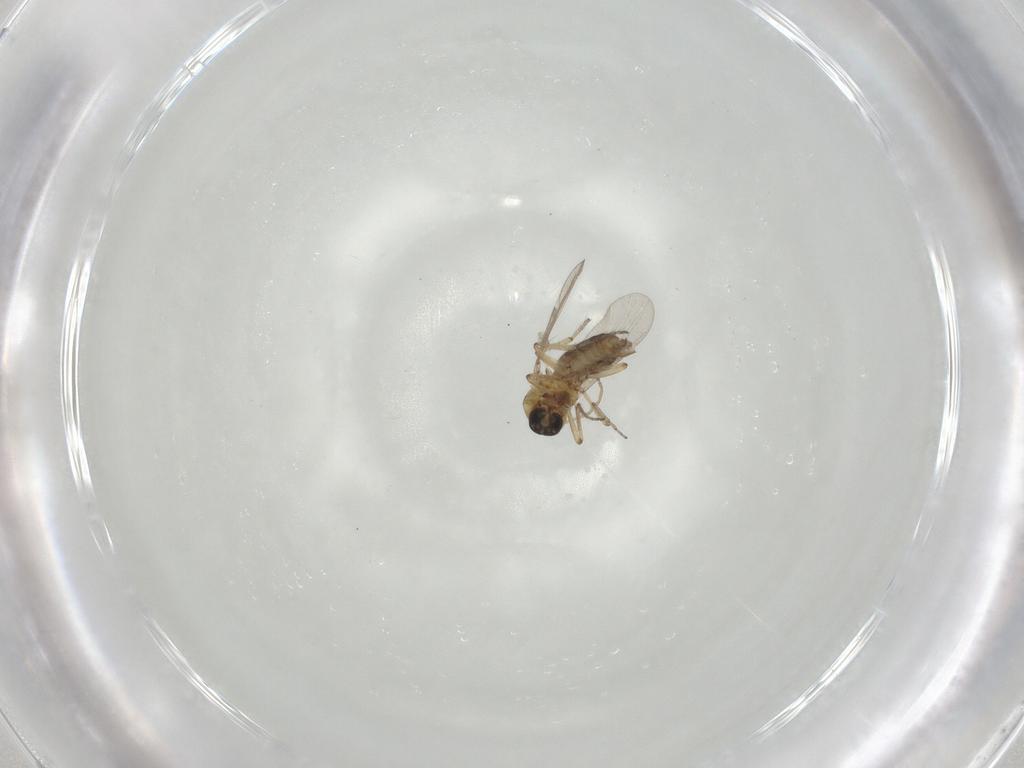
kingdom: Animalia
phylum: Arthropoda
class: Insecta
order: Diptera
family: Ceratopogonidae
